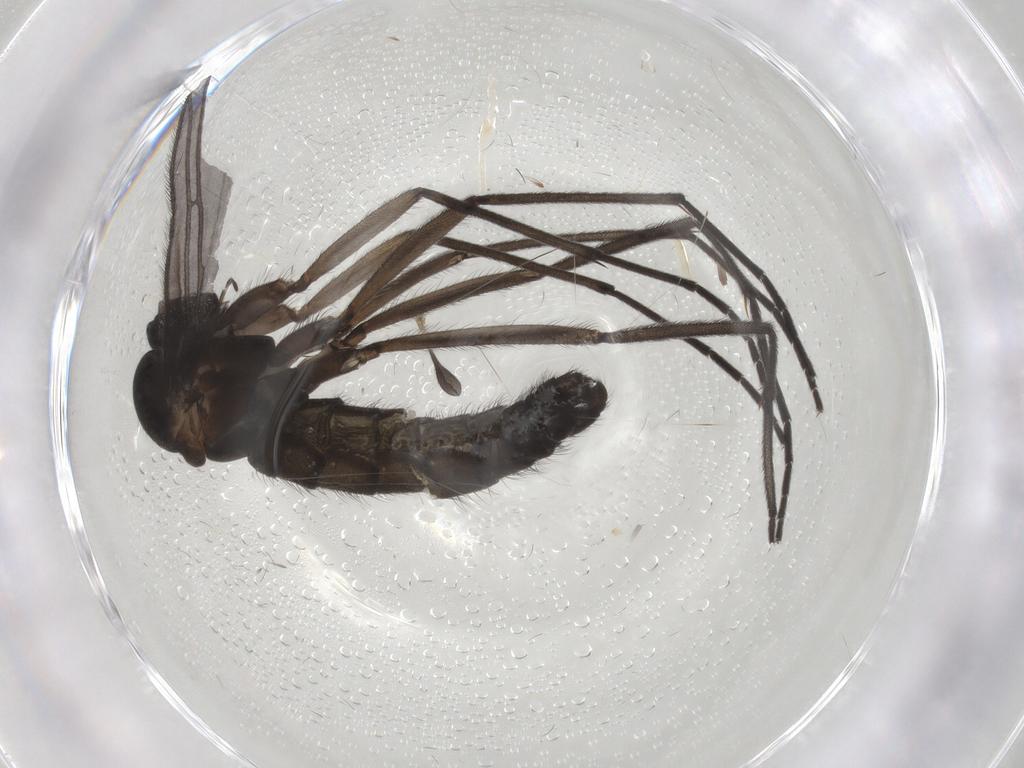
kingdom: Animalia
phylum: Arthropoda
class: Insecta
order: Diptera
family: Sciaridae
